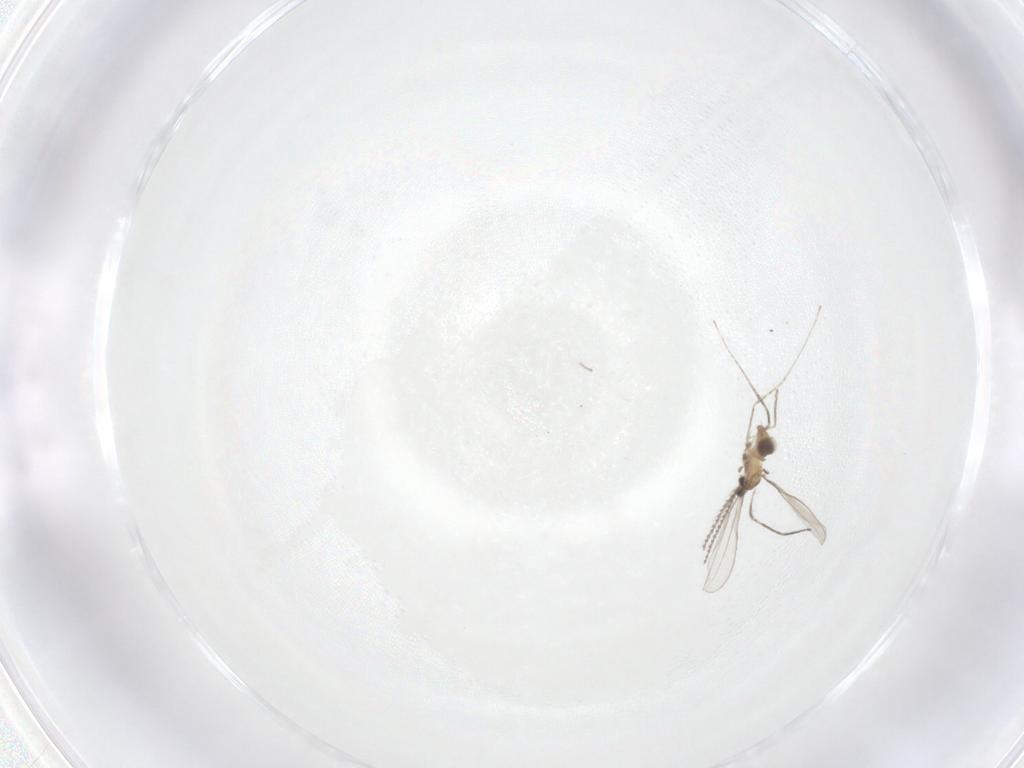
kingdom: Animalia
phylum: Arthropoda
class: Insecta
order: Diptera
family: Cecidomyiidae
